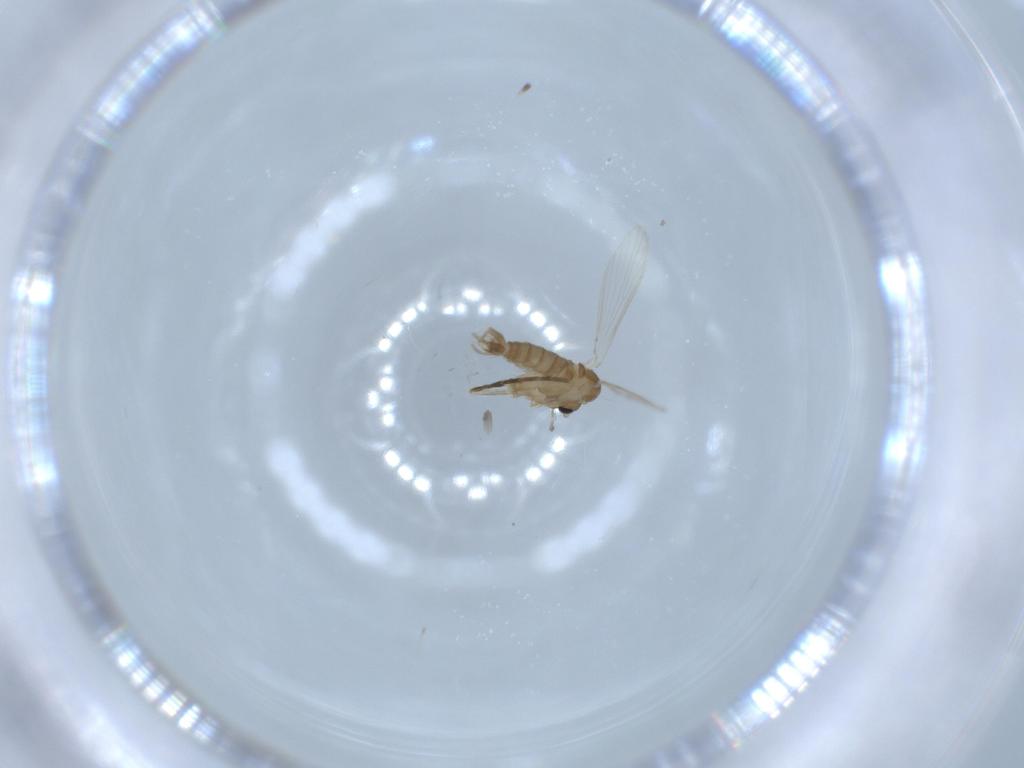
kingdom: Animalia
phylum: Arthropoda
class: Insecta
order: Diptera
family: Psychodidae
